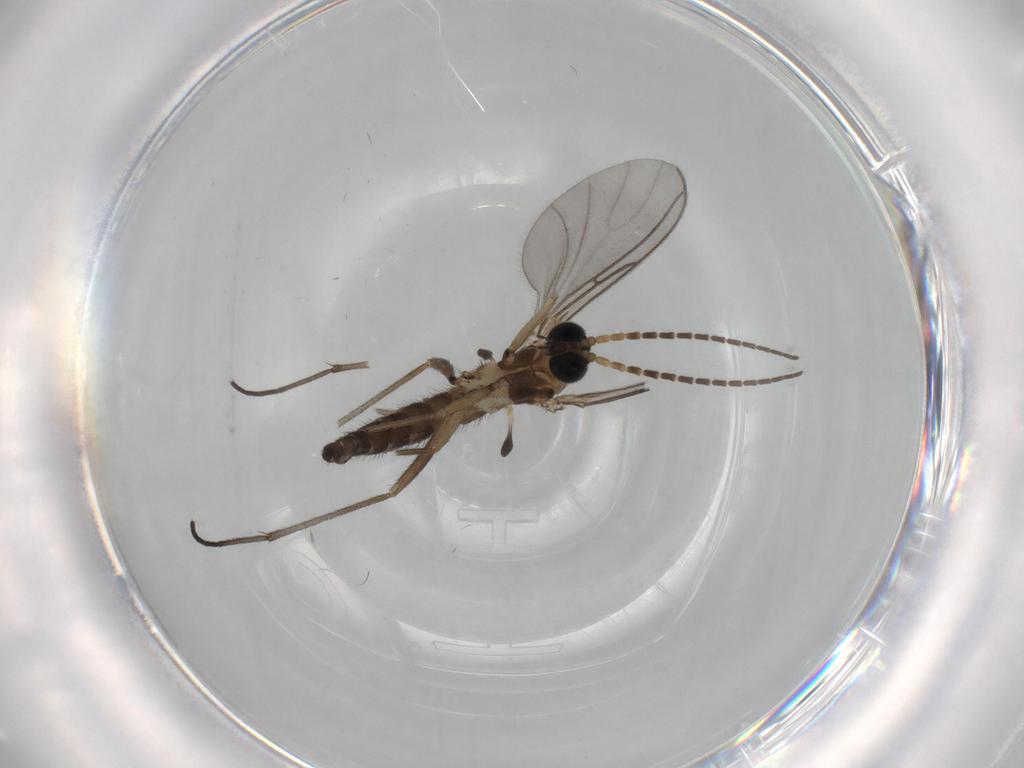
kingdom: Animalia
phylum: Arthropoda
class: Insecta
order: Diptera
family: Sciaridae
